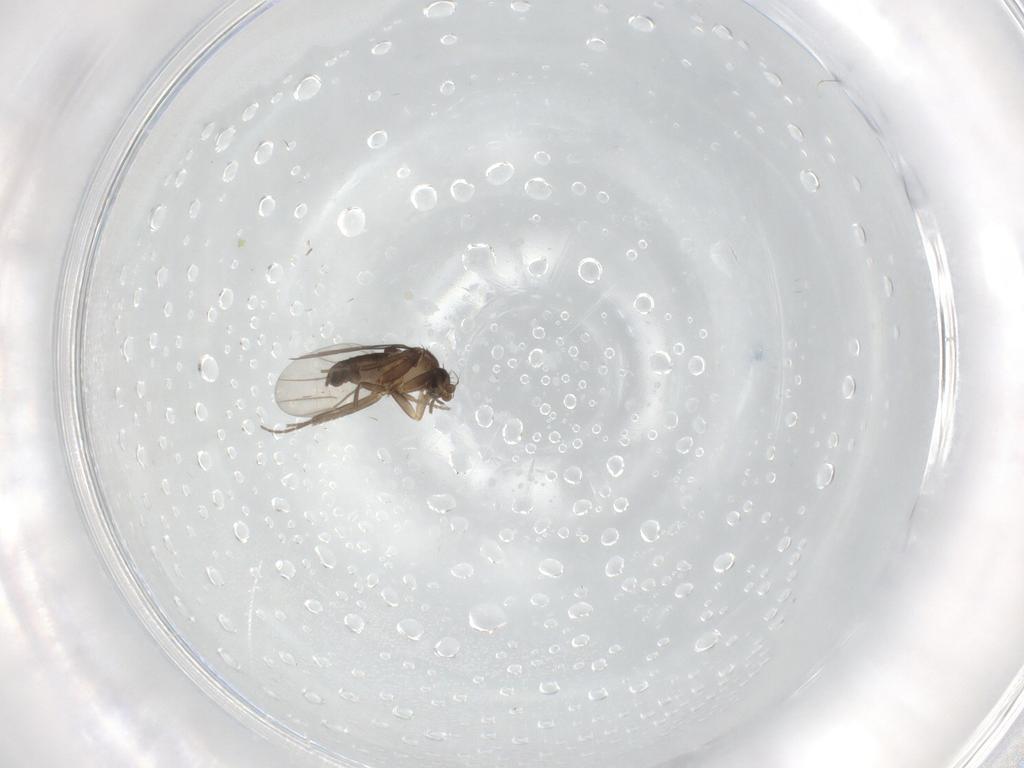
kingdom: Animalia
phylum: Arthropoda
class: Insecta
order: Diptera
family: Phoridae
